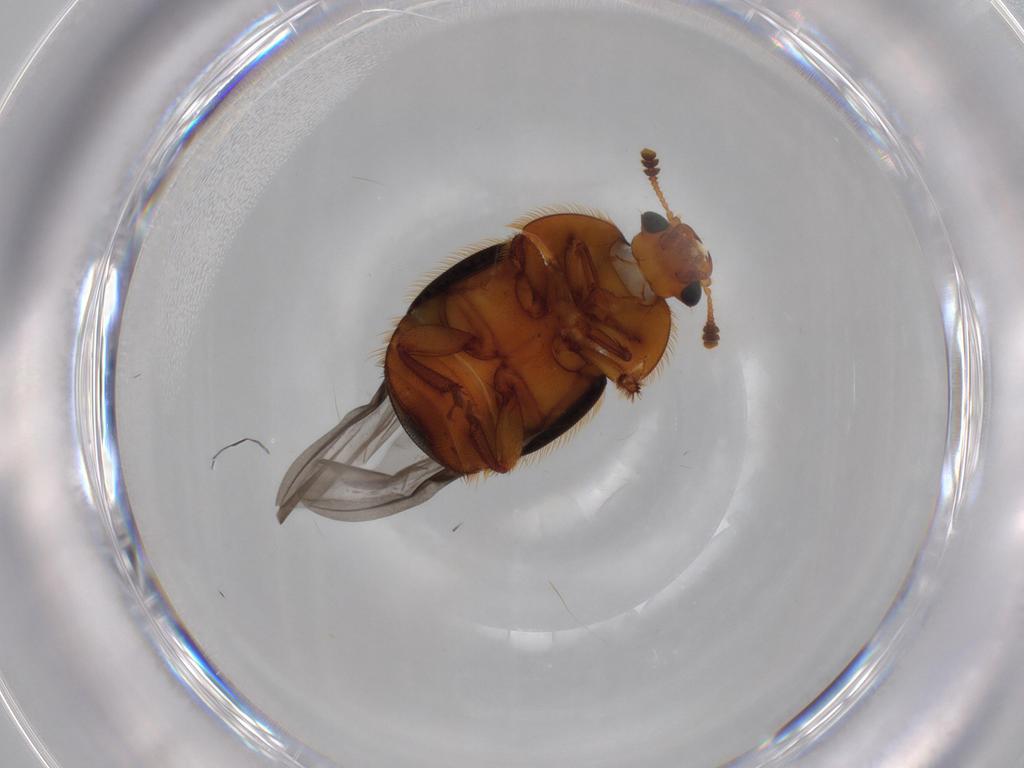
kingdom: Animalia
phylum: Arthropoda
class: Insecta
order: Coleoptera
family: Nitidulidae
